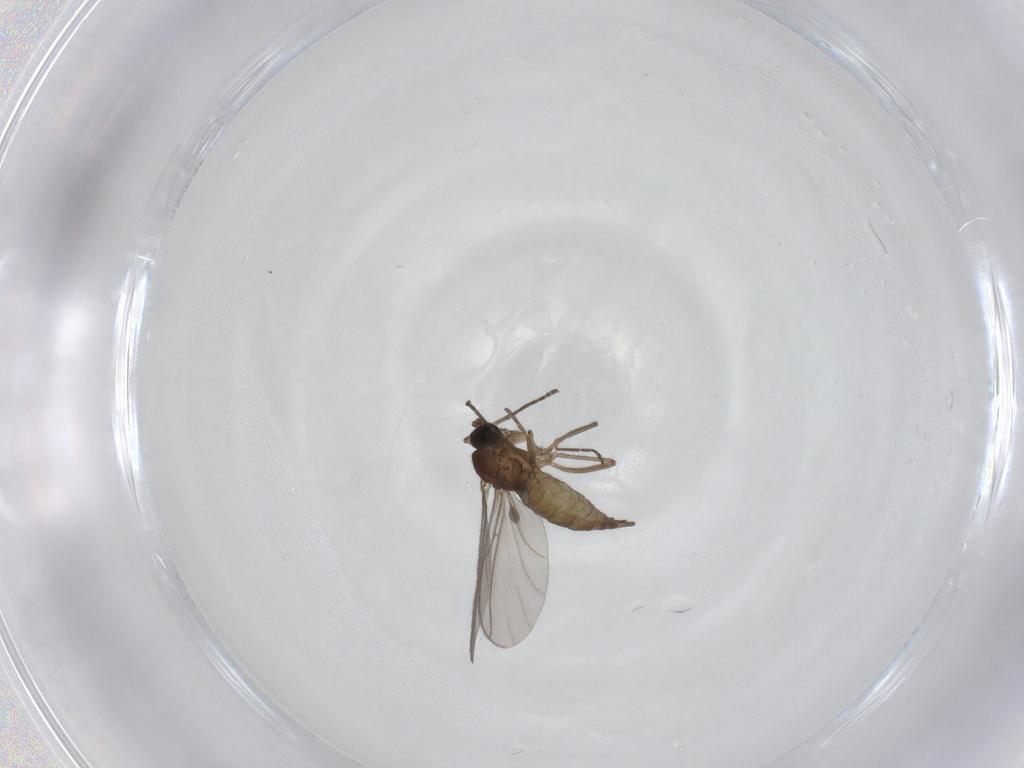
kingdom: Animalia
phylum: Arthropoda
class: Insecta
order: Diptera
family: Sciaridae
